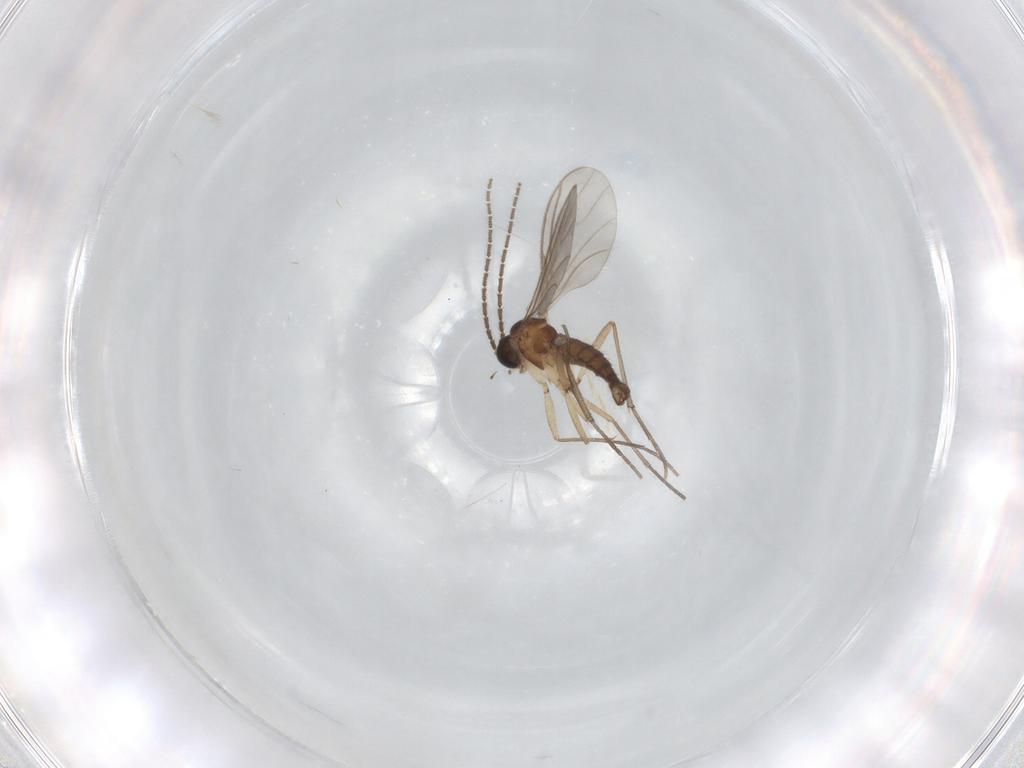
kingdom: Animalia
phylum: Arthropoda
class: Insecta
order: Diptera
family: Sciaridae
